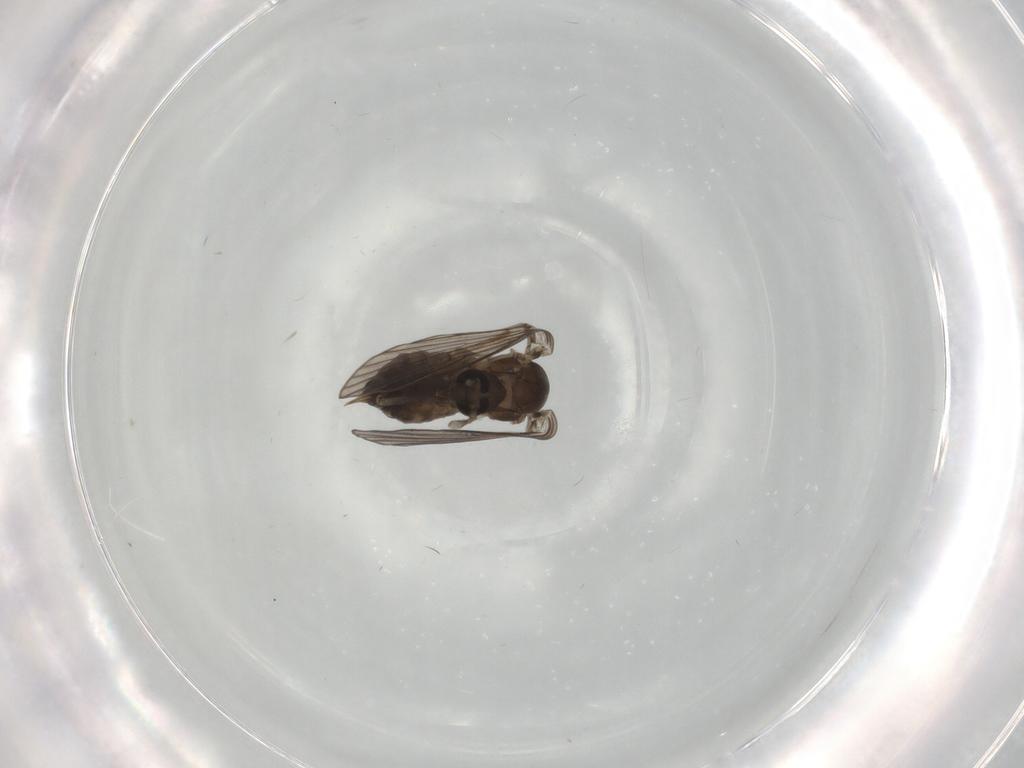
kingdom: Animalia
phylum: Arthropoda
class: Insecta
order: Diptera
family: Psychodidae
